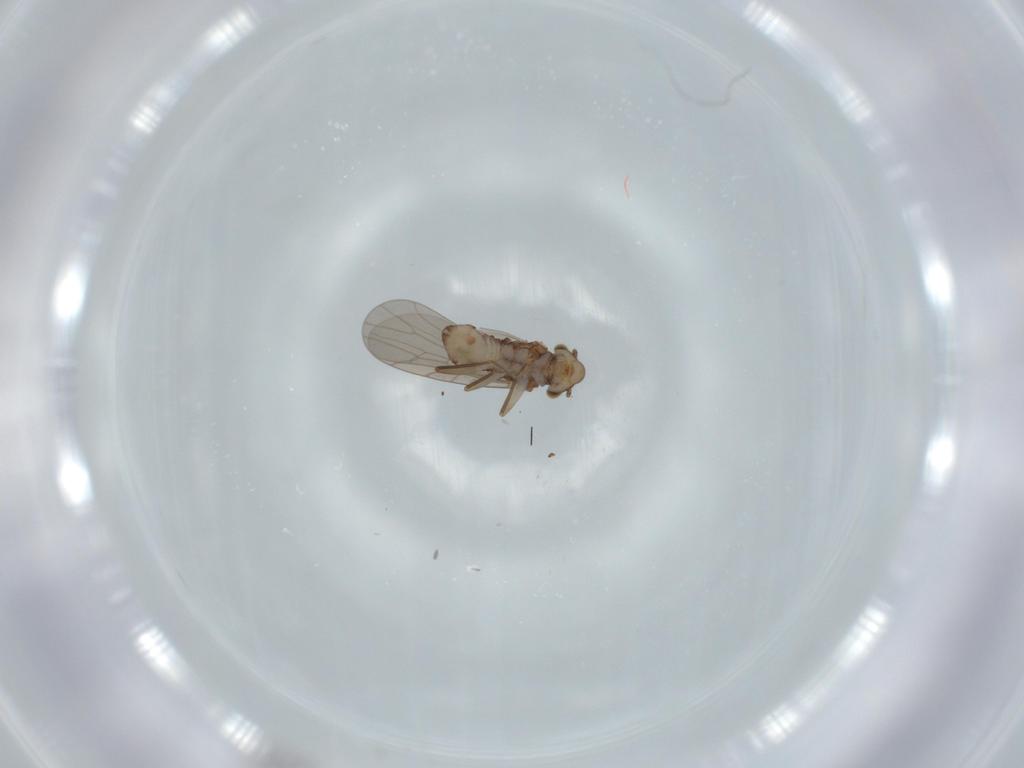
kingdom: Animalia
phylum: Arthropoda
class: Insecta
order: Psocodea
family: Lepidopsocidae
